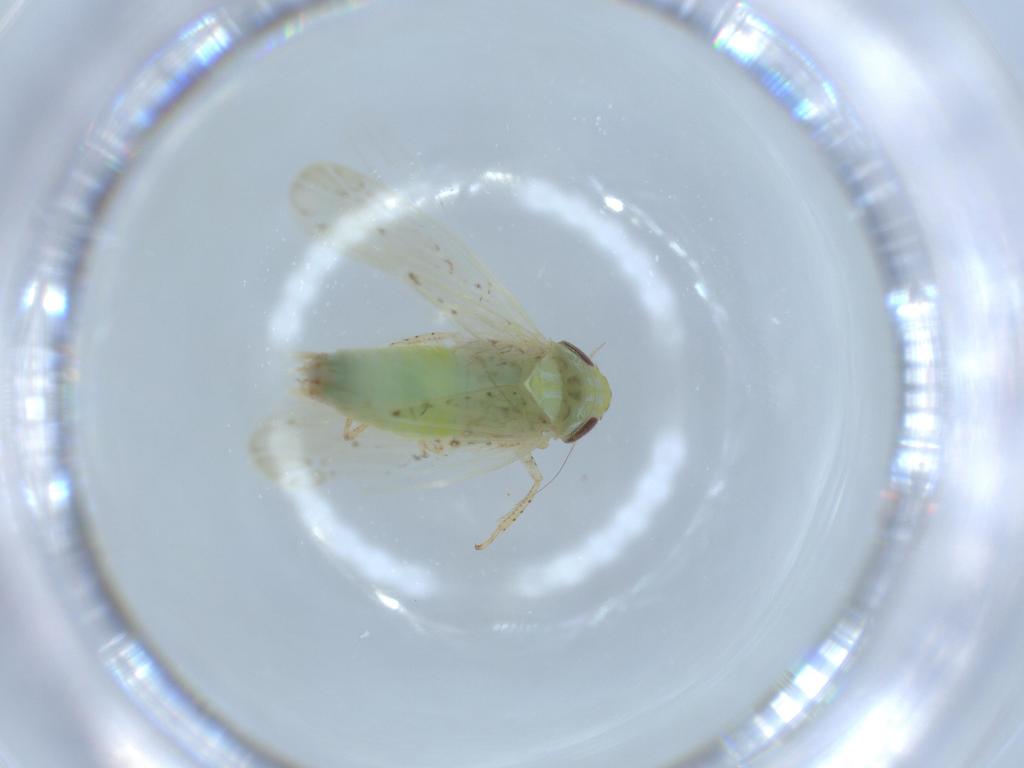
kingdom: Animalia
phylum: Arthropoda
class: Insecta
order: Hemiptera
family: Cicadellidae
